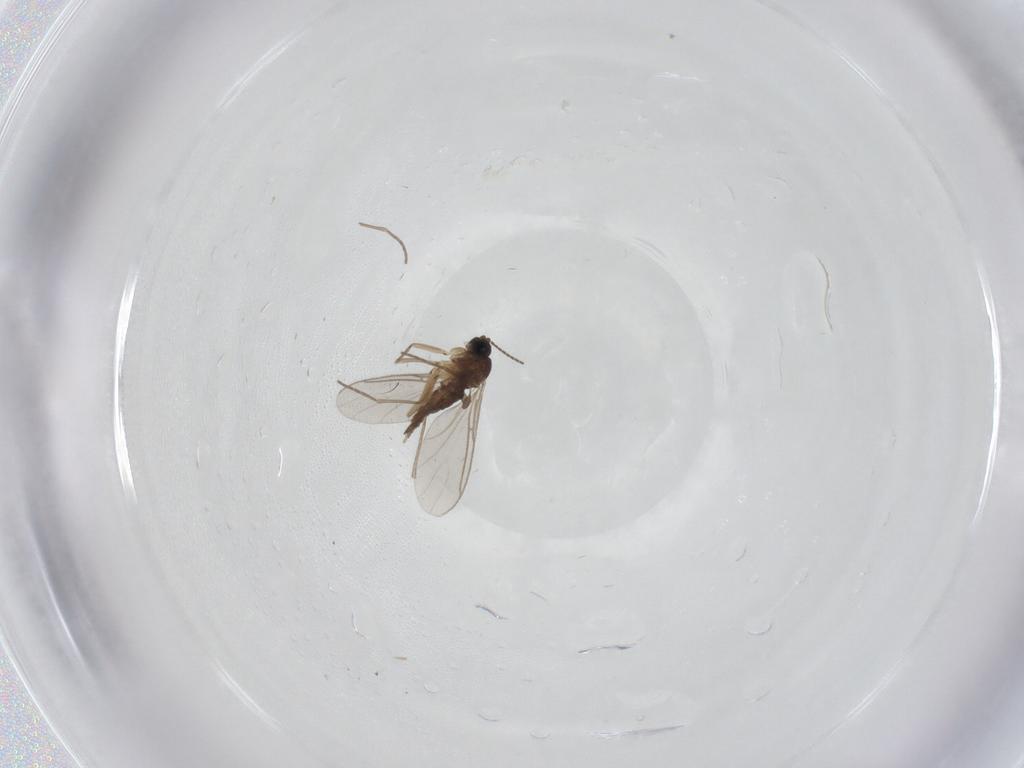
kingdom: Animalia
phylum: Arthropoda
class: Insecta
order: Diptera
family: Sciaridae
